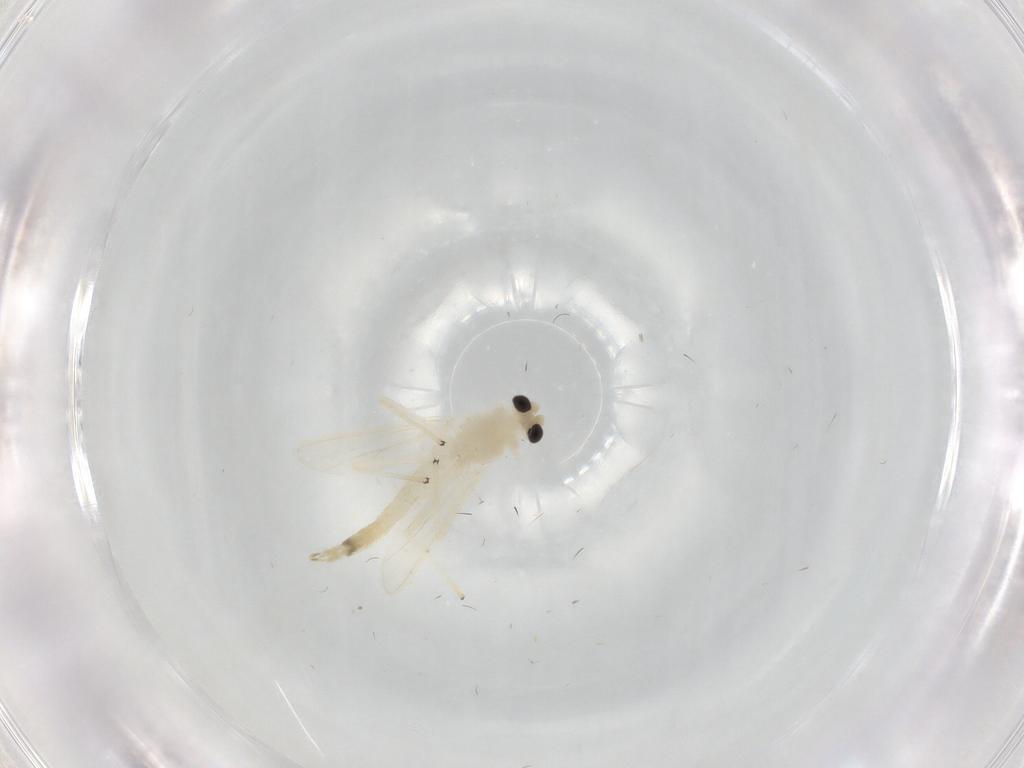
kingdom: Animalia
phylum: Arthropoda
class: Insecta
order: Diptera
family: Chironomidae
